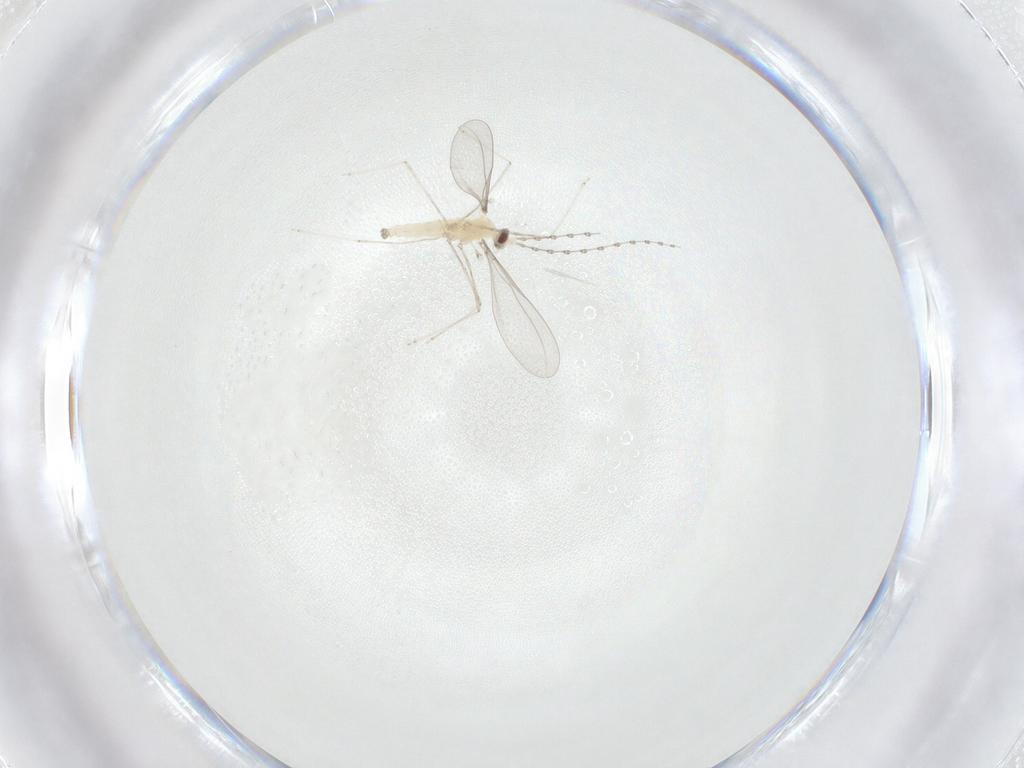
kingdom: Animalia
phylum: Arthropoda
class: Insecta
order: Diptera
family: Cecidomyiidae
